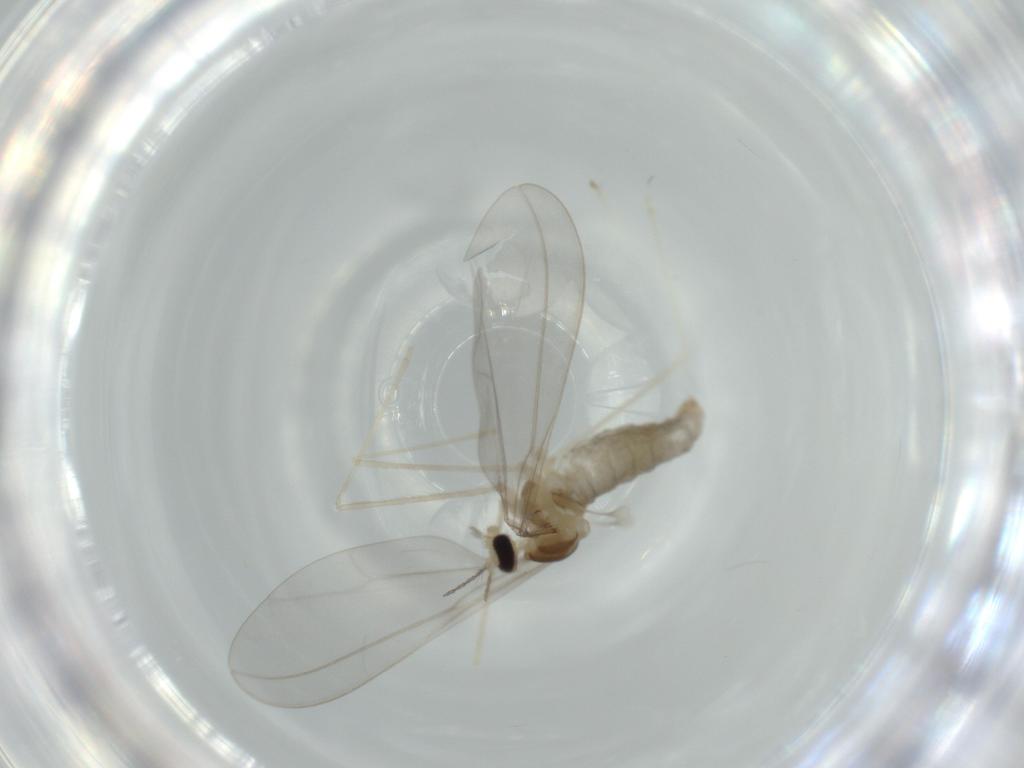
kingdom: Animalia
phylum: Arthropoda
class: Insecta
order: Diptera
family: Cecidomyiidae
